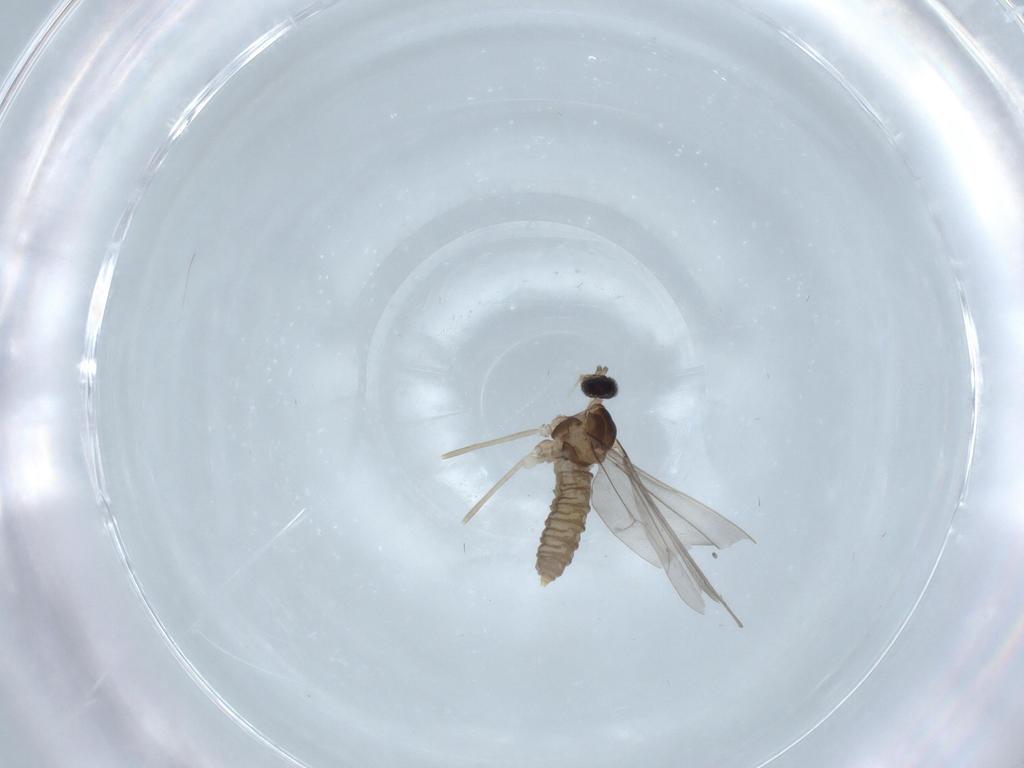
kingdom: Animalia
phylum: Arthropoda
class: Insecta
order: Diptera
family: Cecidomyiidae
